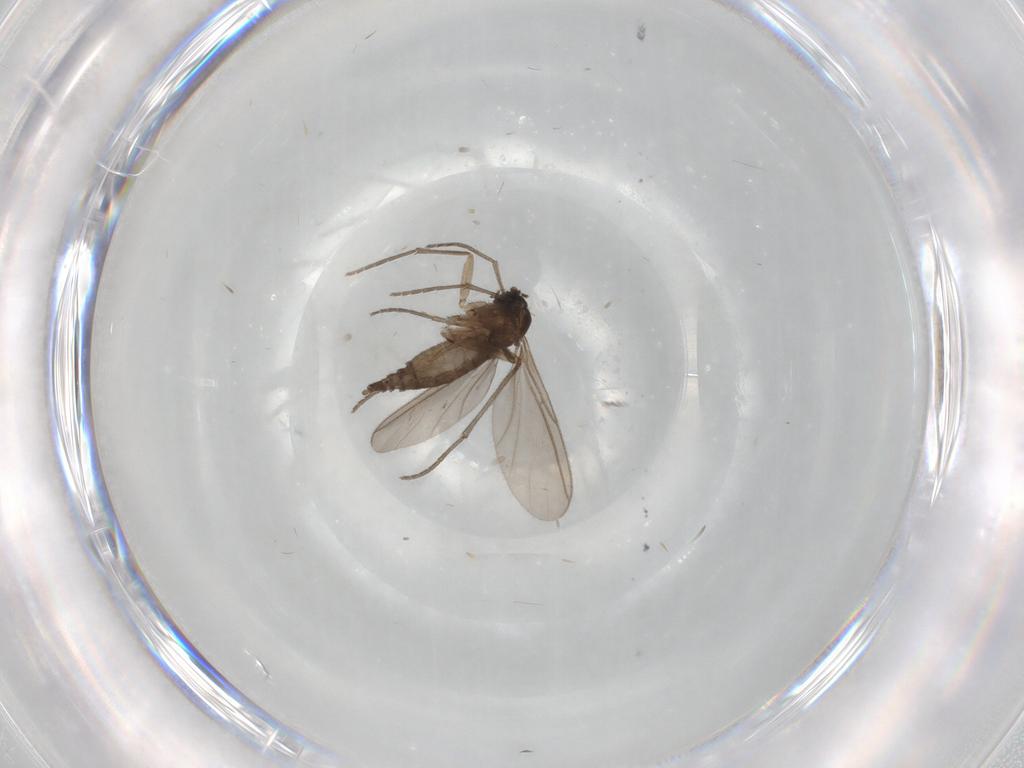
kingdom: Animalia
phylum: Arthropoda
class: Insecta
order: Diptera
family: Sciaridae
